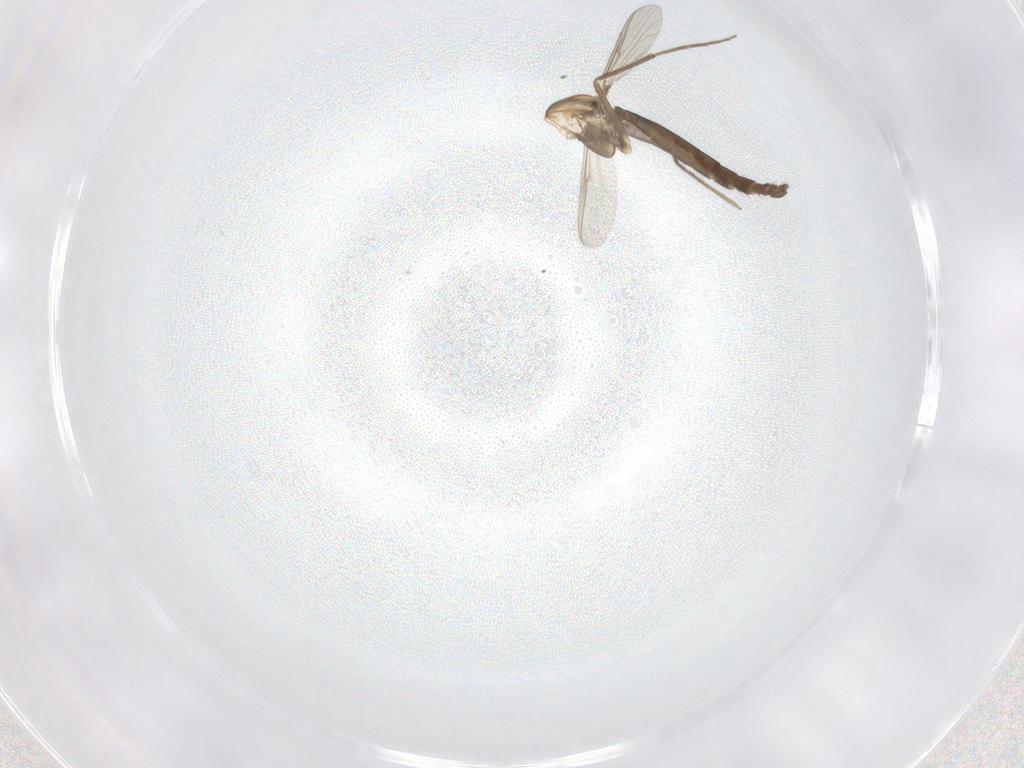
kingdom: Animalia
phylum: Arthropoda
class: Insecta
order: Diptera
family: Chironomidae
